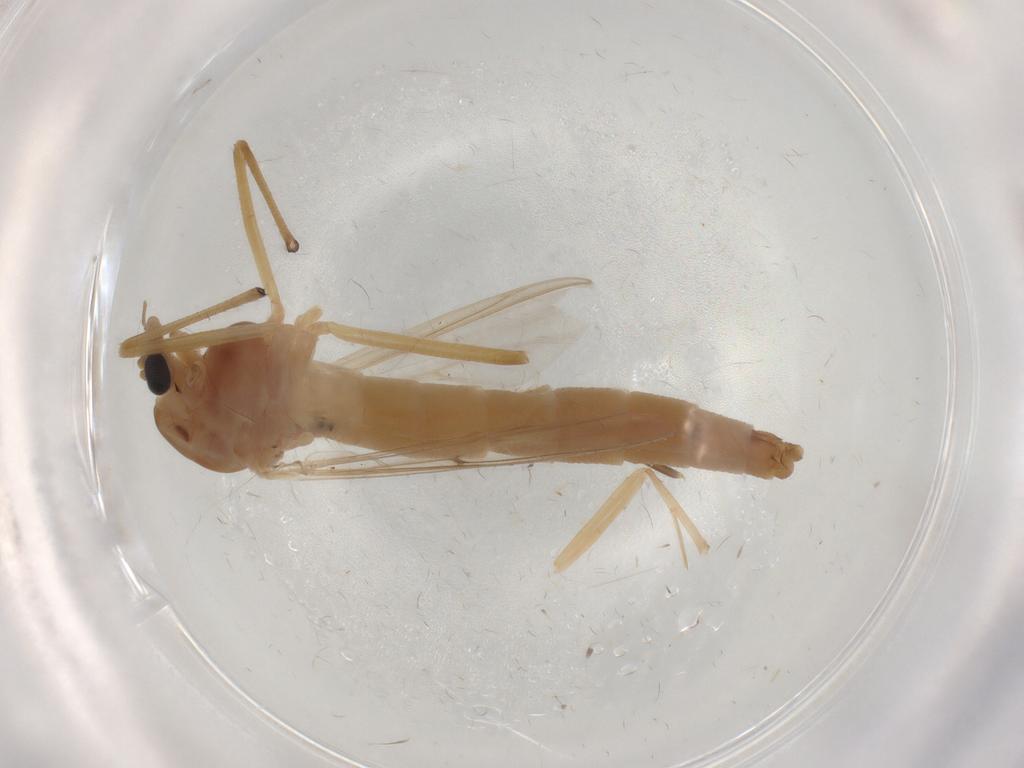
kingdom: Animalia
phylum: Arthropoda
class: Insecta
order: Diptera
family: Chironomidae
